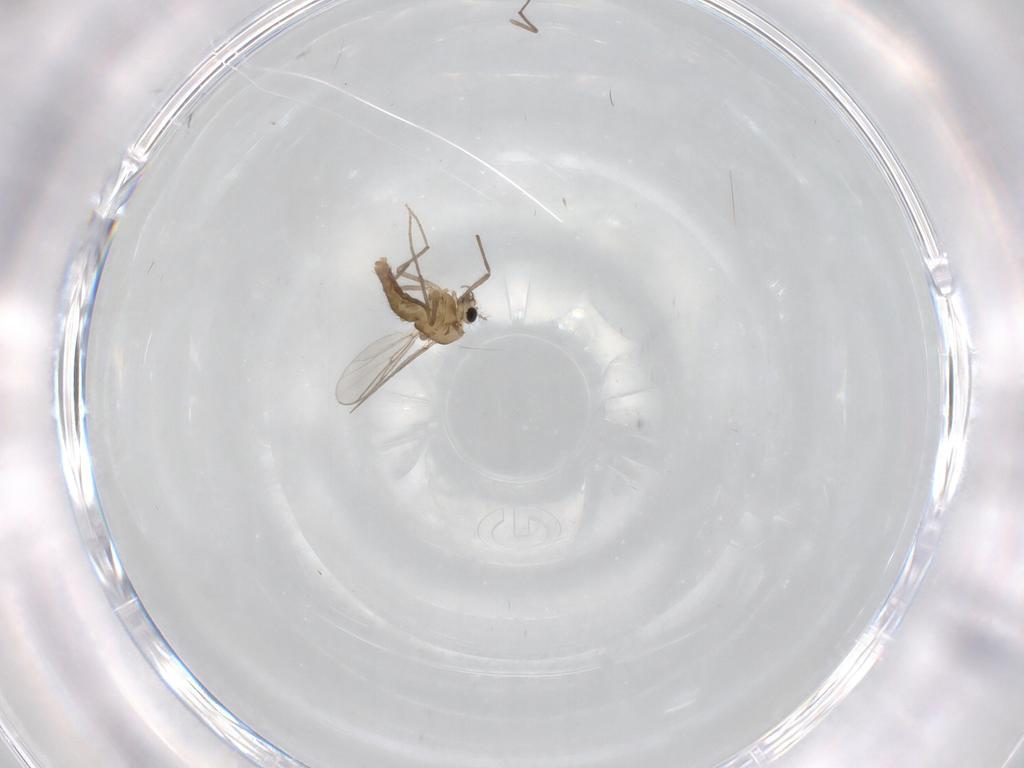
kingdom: Animalia
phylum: Arthropoda
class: Insecta
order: Diptera
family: Chironomidae
